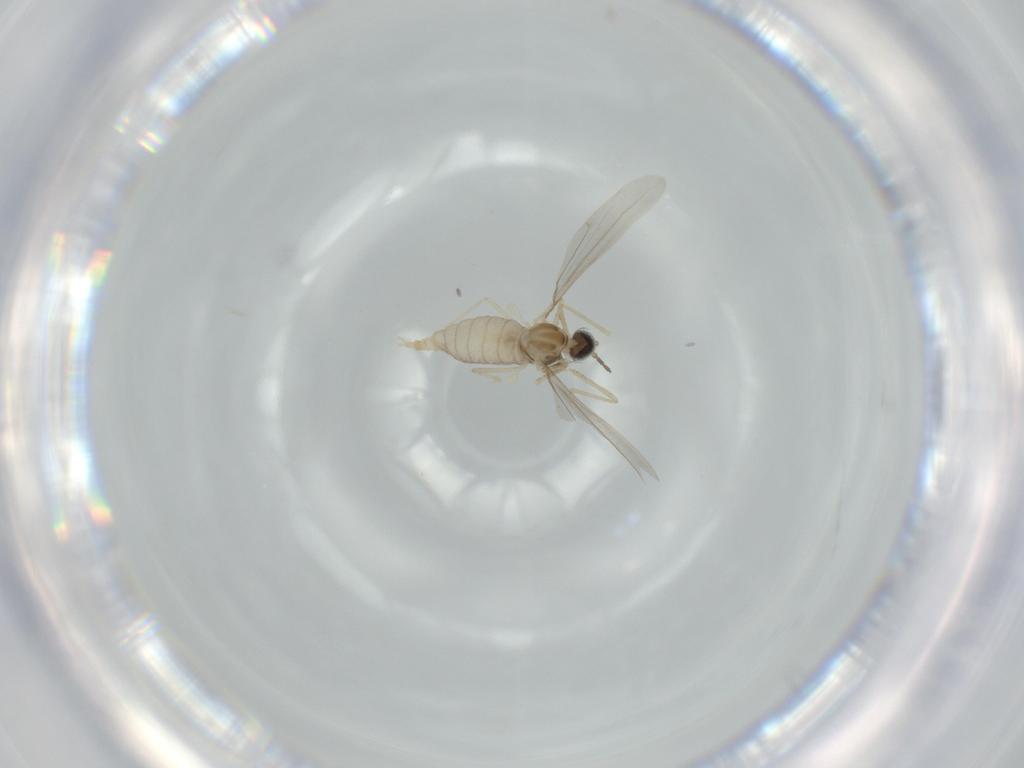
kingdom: Animalia
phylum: Arthropoda
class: Insecta
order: Diptera
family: Cecidomyiidae
